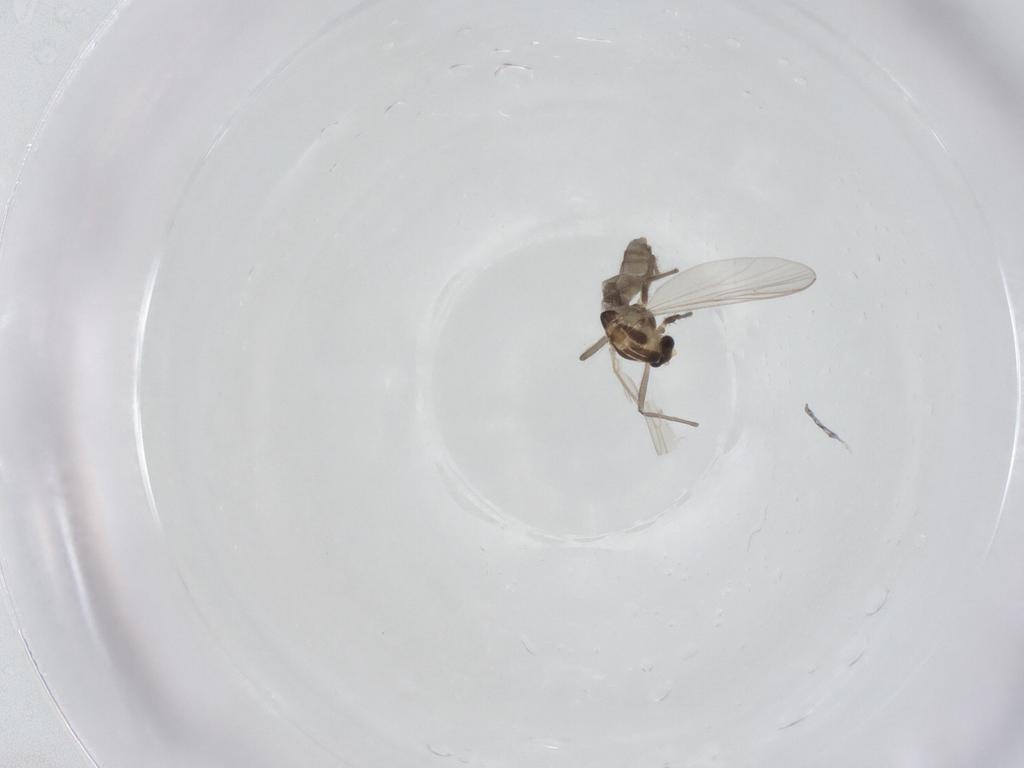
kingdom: Animalia
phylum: Arthropoda
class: Insecta
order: Diptera
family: Chironomidae
